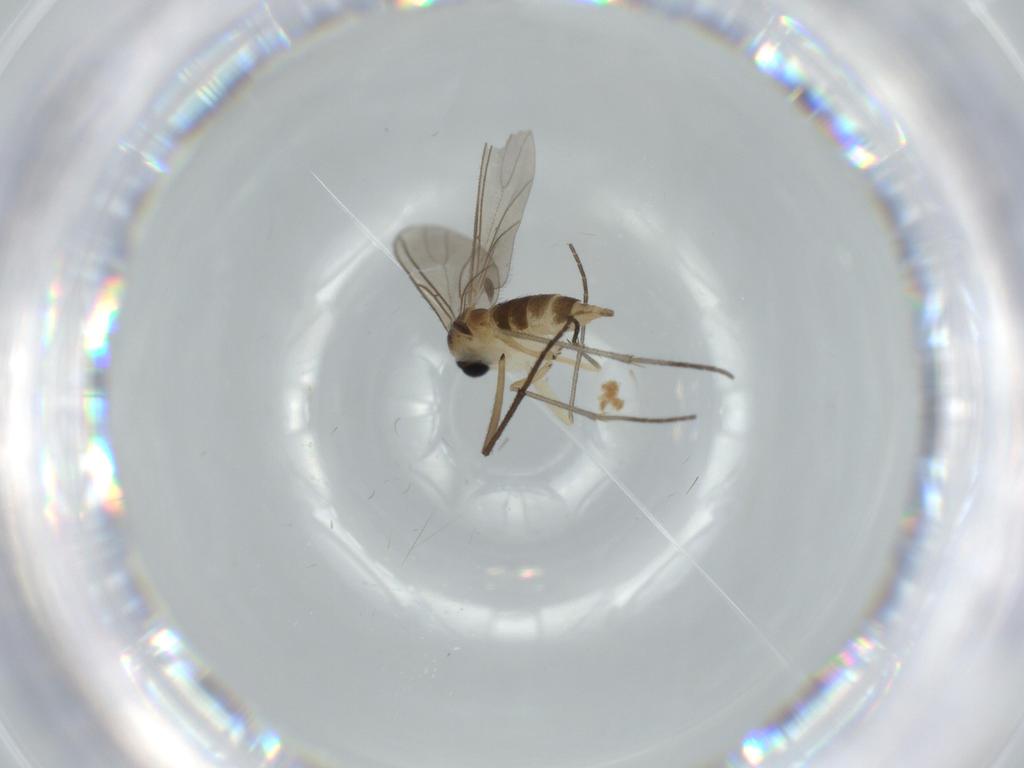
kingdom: Animalia
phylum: Arthropoda
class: Insecta
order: Diptera
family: Sciaridae
